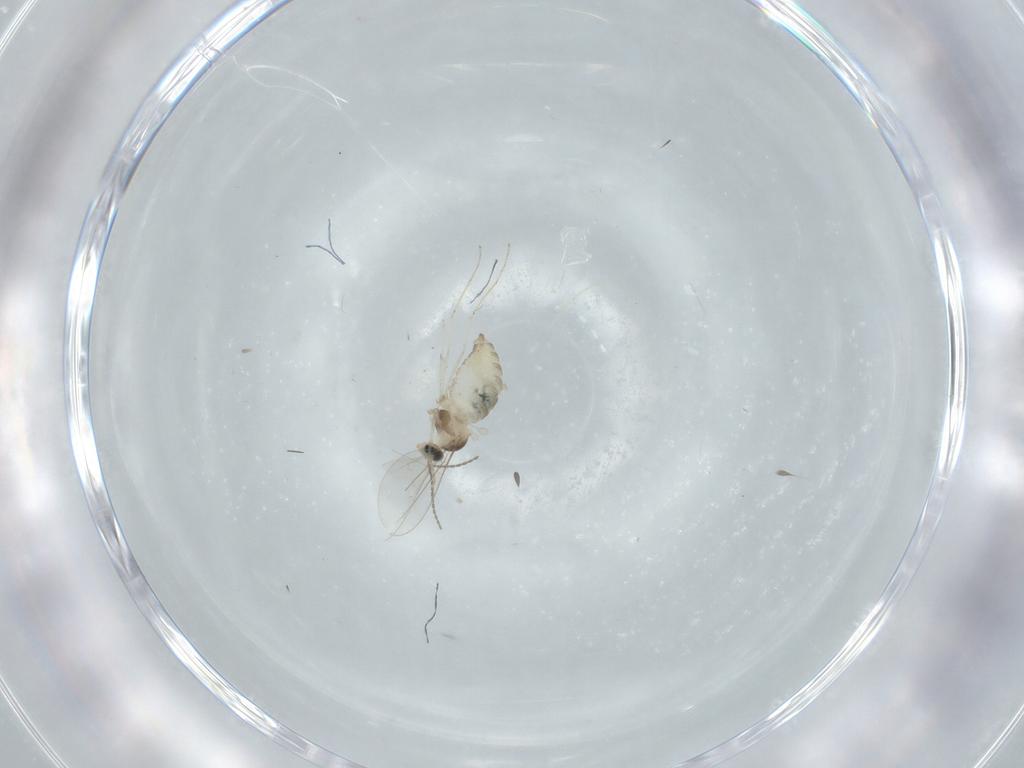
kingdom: Animalia
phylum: Arthropoda
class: Insecta
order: Diptera
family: Cecidomyiidae
